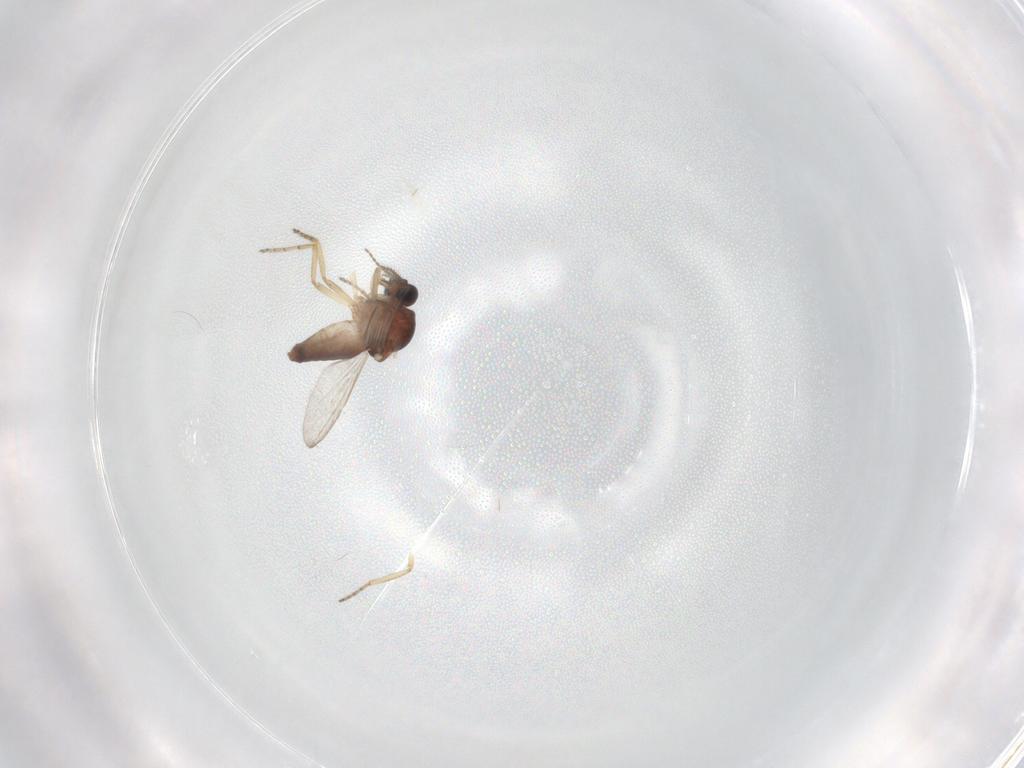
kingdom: Animalia
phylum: Arthropoda
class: Insecta
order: Diptera
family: Ceratopogonidae
